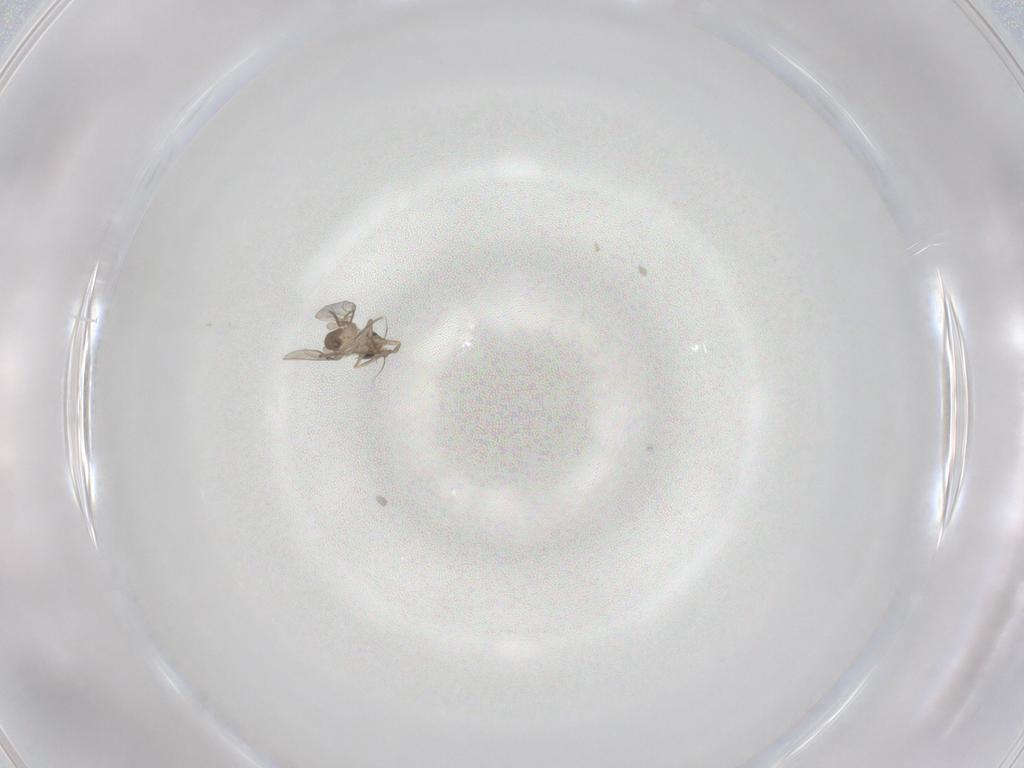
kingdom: Animalia
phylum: Arthropoda
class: Insecta
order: Diptera
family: Phoridae
